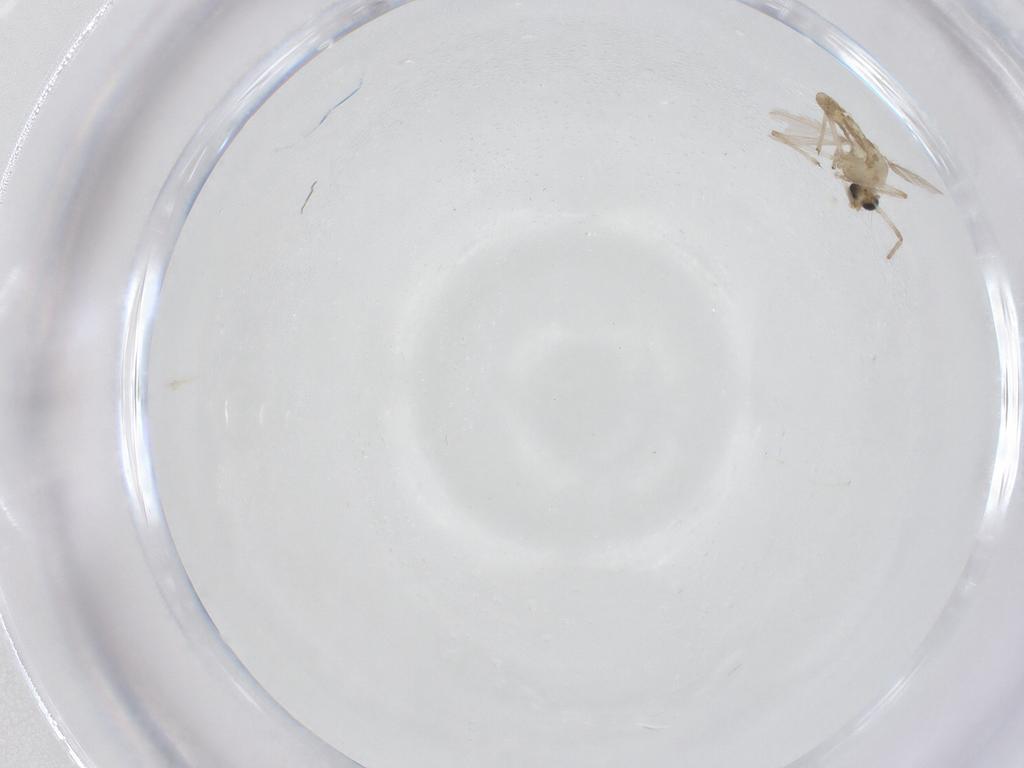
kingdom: Animalia
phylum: Arthropoda
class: Insecta
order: Diptera
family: Chironomidae
